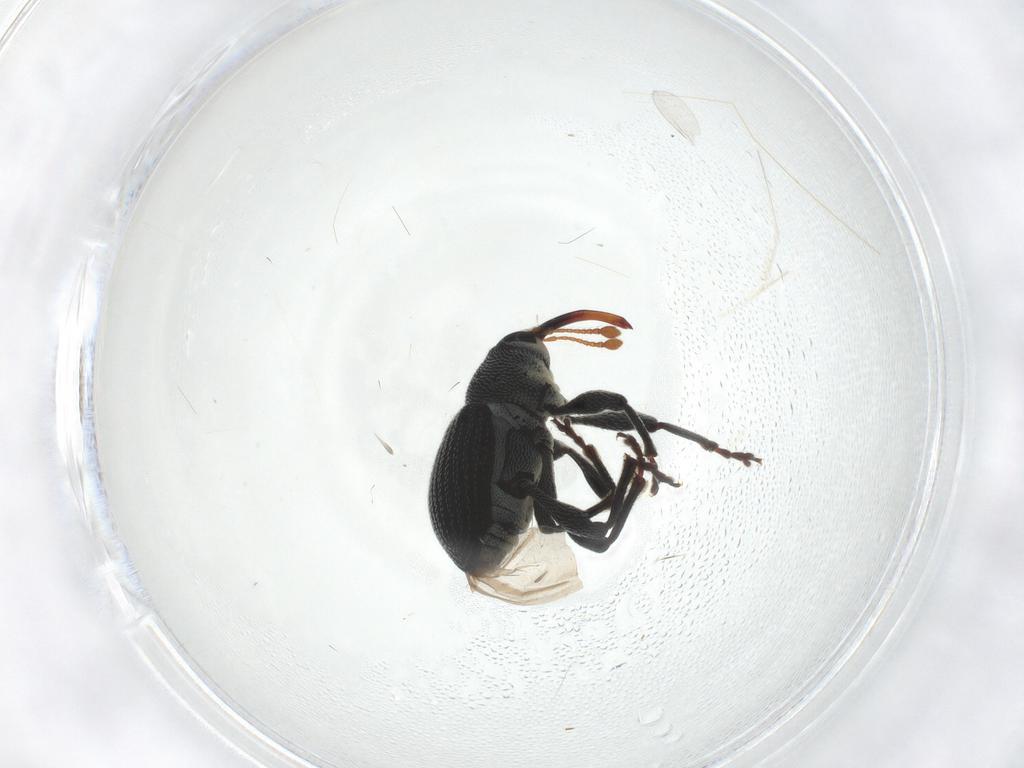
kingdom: Animalia
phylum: Arthropoda
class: Insecta
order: Coleoptera
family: Curculionidae
